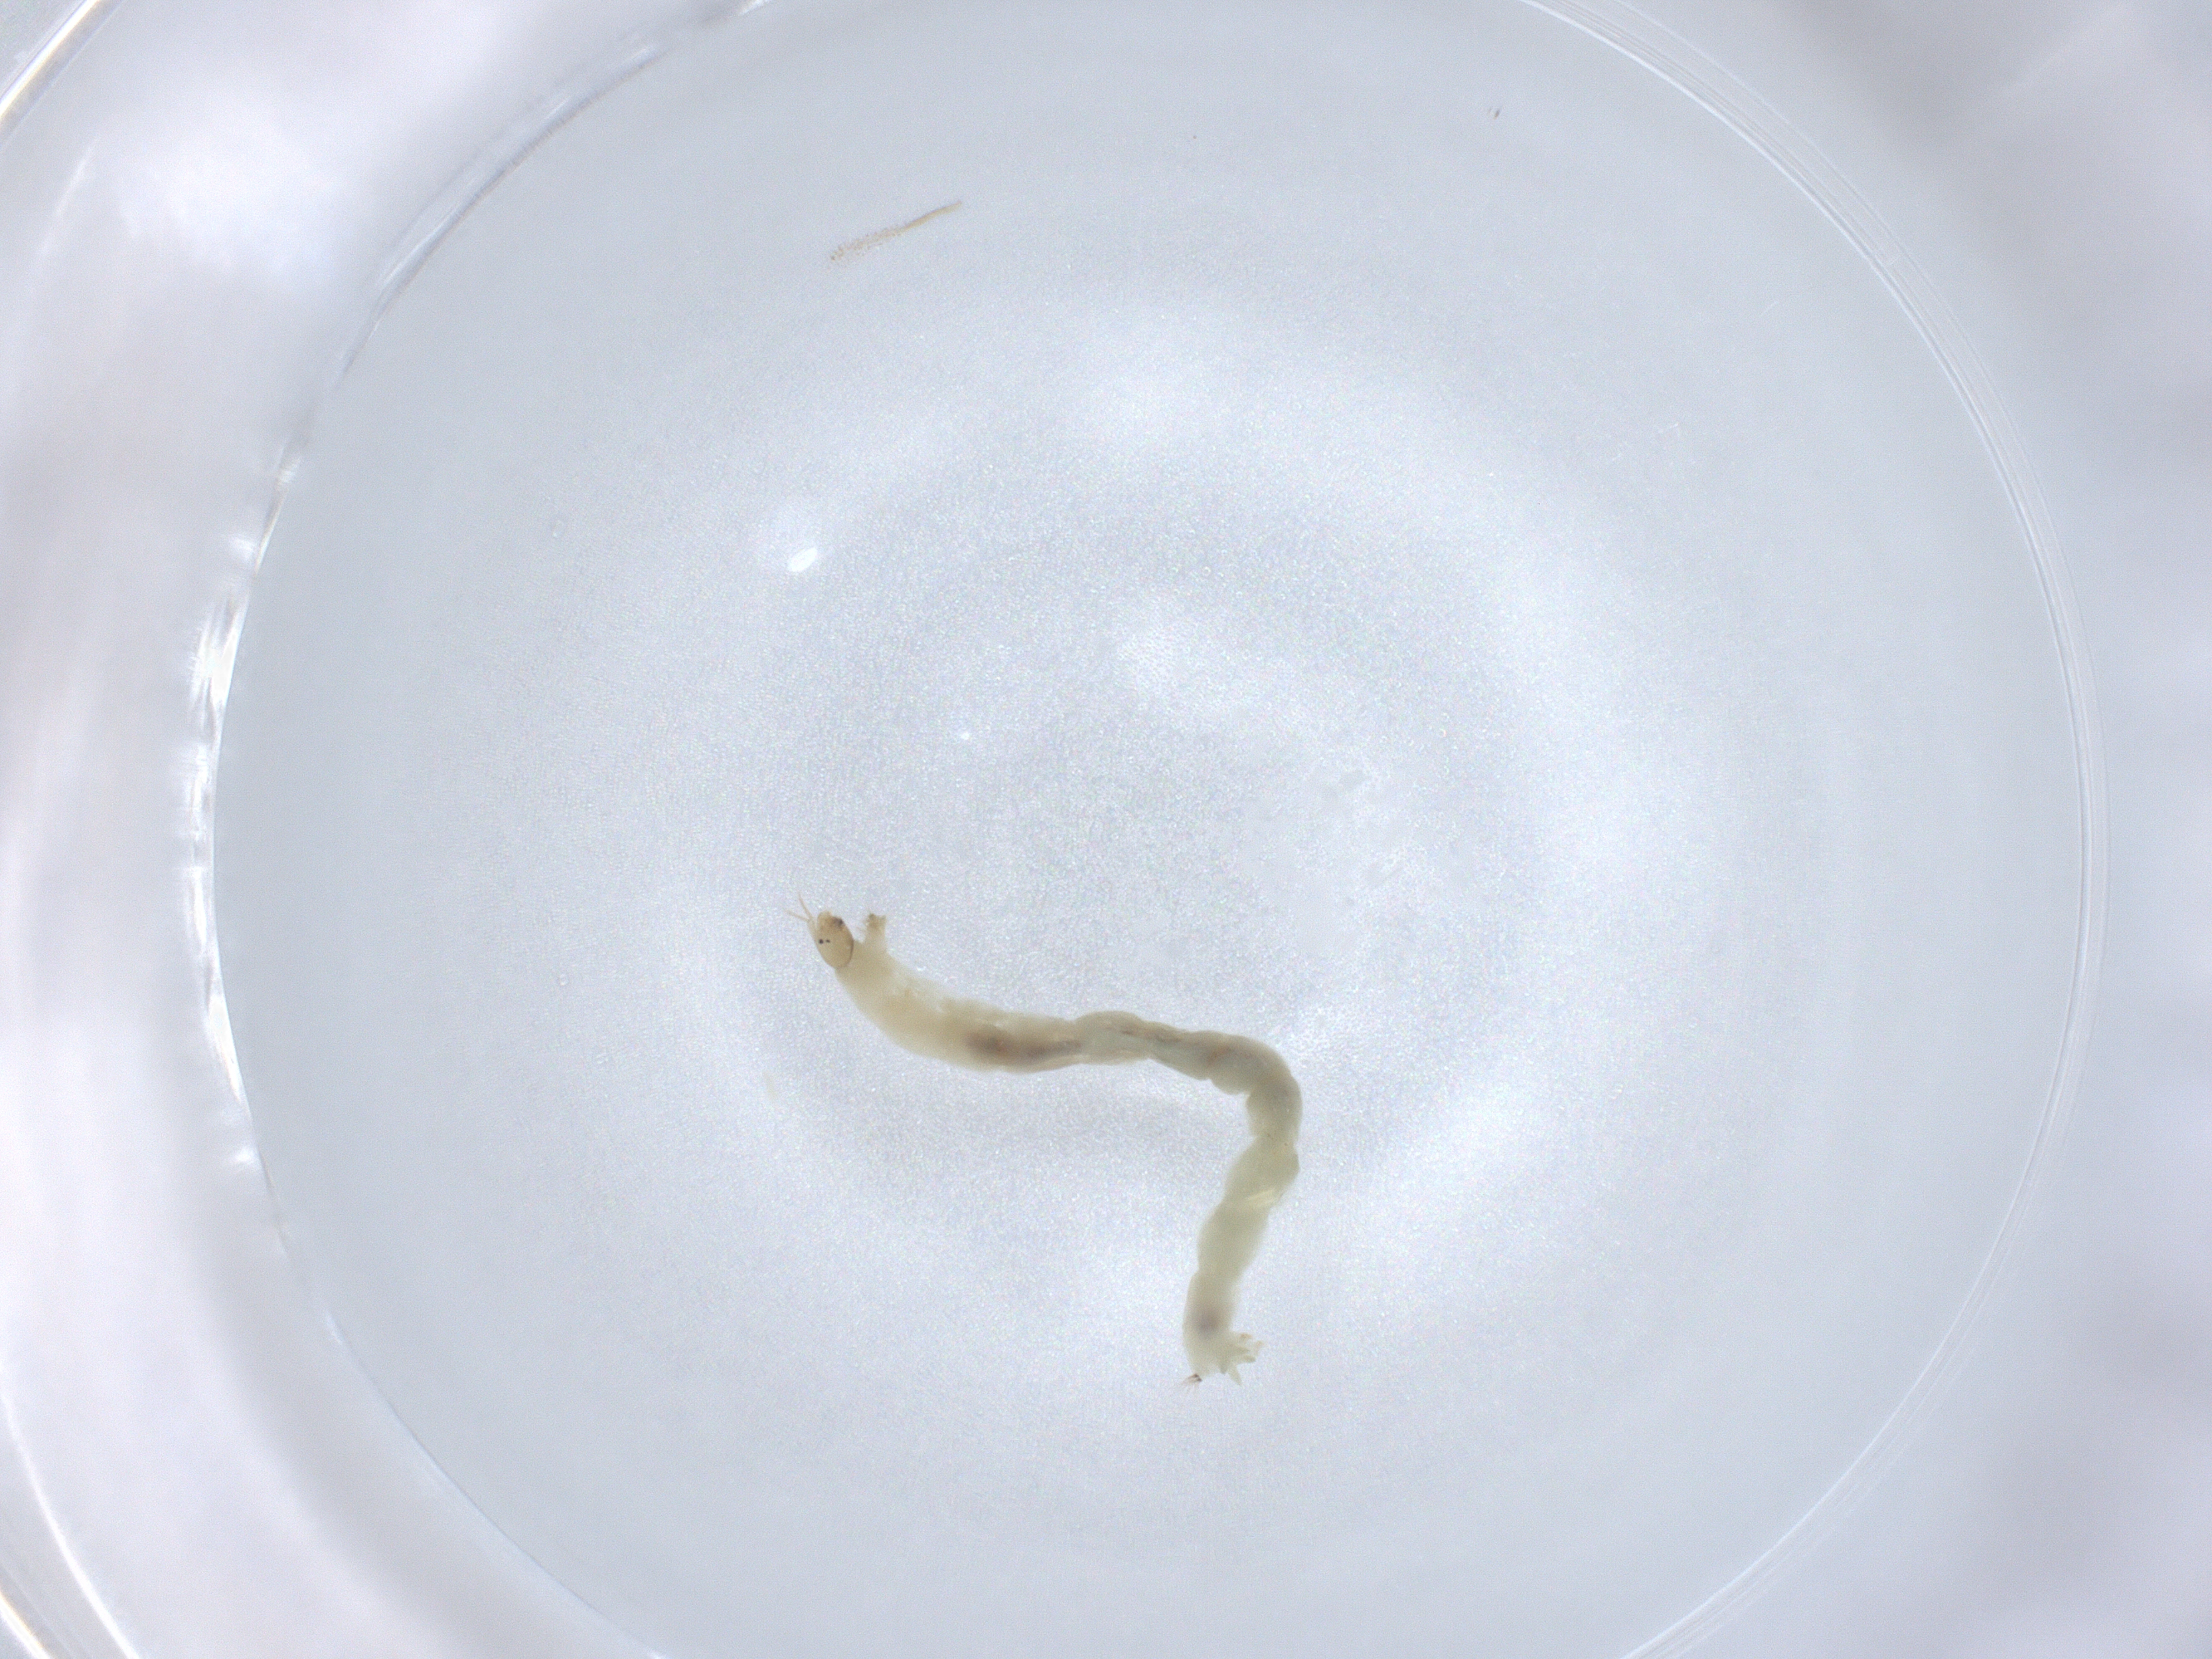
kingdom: Animalia
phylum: Arthropoda
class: Insecta
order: Diptera
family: Chironomidae
